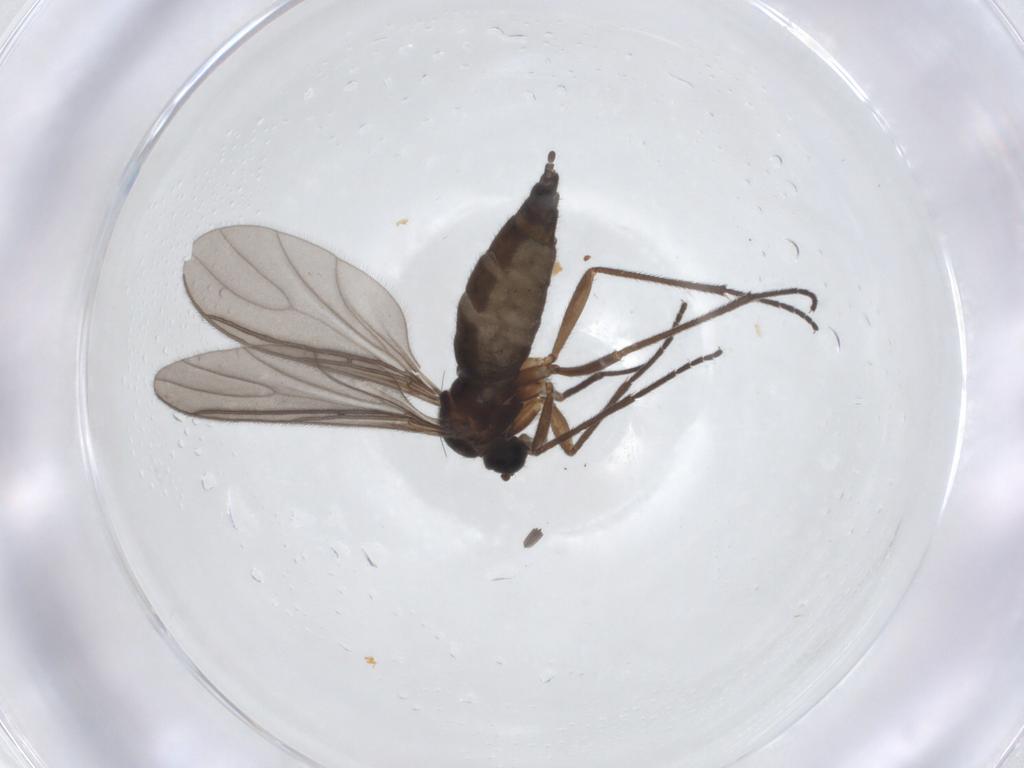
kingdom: Animalia
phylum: Arthropoda
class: Insecta
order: Diptera
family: Sciaridae
